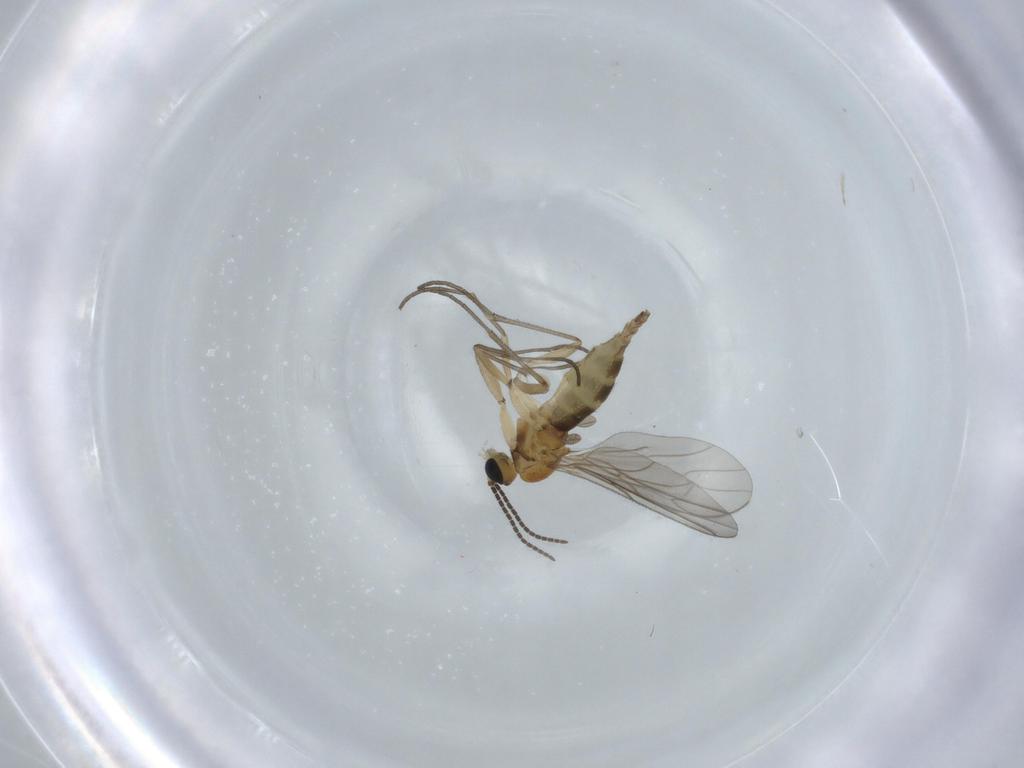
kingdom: Animalia
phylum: Arthropoda
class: Insecta
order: Diptera
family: Sciaridae
